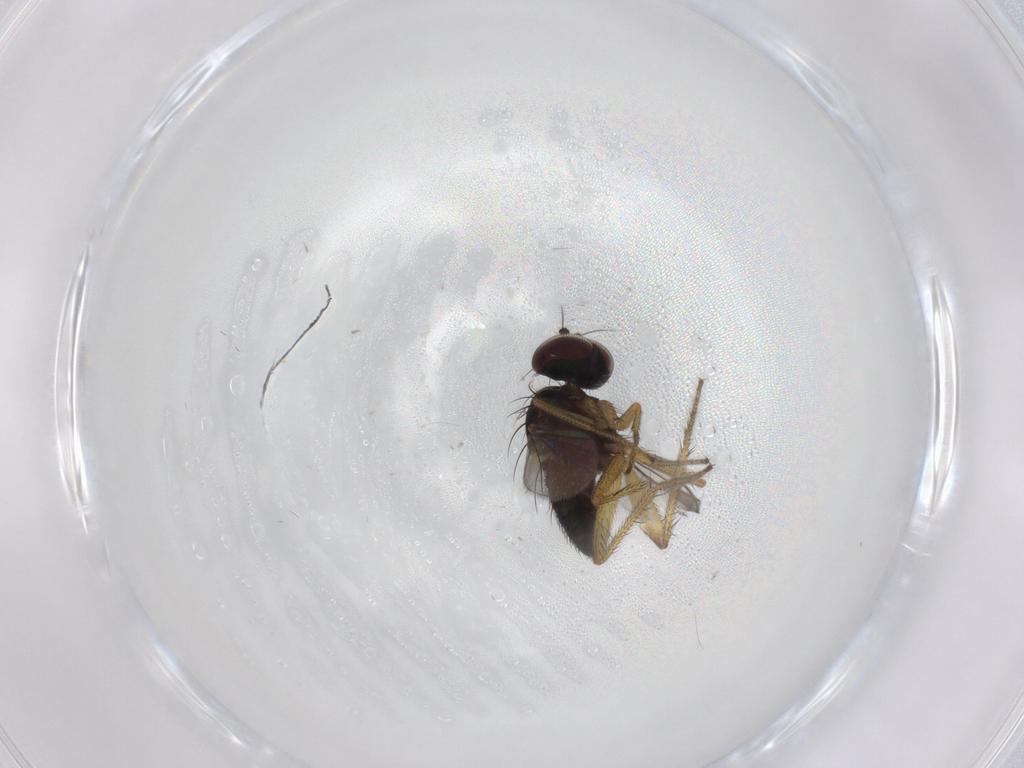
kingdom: Animalia
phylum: Arthropoda
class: Insecta
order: Diptera
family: Dolichopodidae
